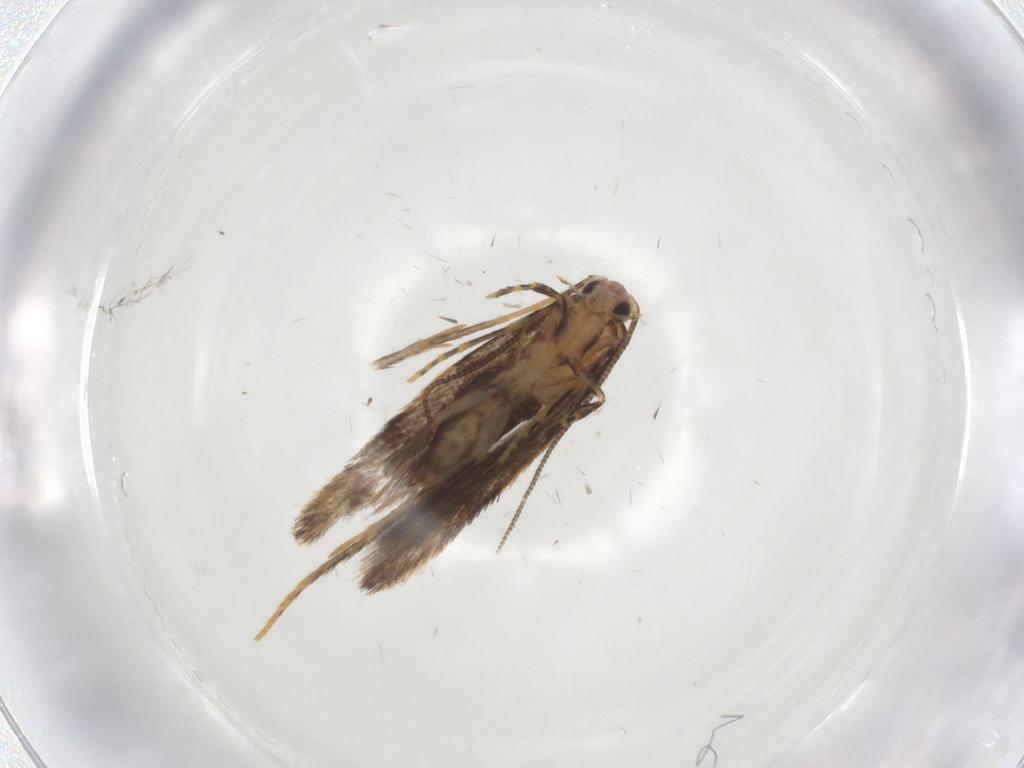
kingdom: Animalia
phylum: Arthropoda
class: Insecta
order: Lepidoptera
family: Tineidae
